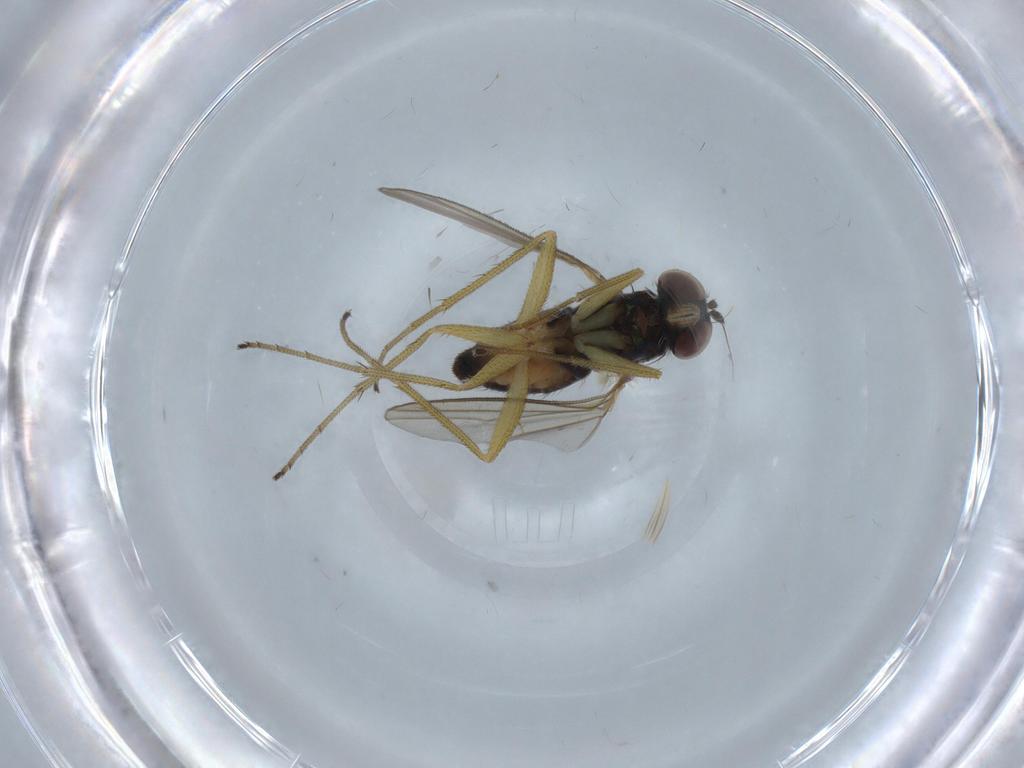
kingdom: Animalia
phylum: Arthropoda
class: Insecta
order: Diptera
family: Dolichopodidae
